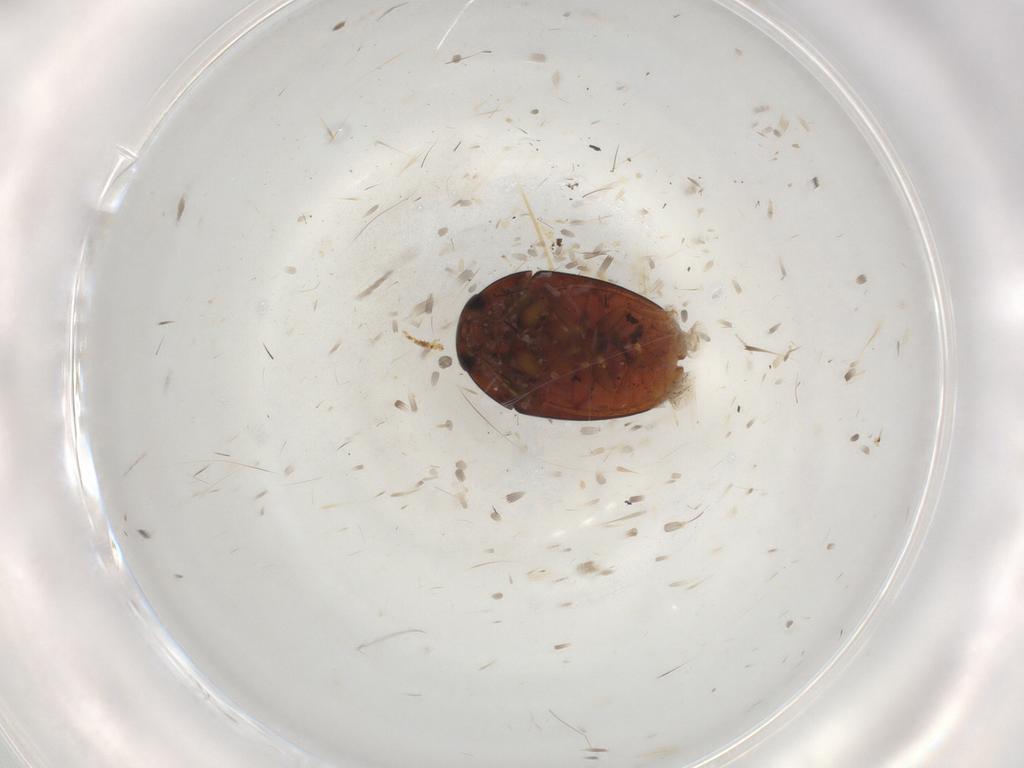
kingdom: Animalia
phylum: Arthropoda
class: Insecta
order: Coleoptera
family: Phalacridae
